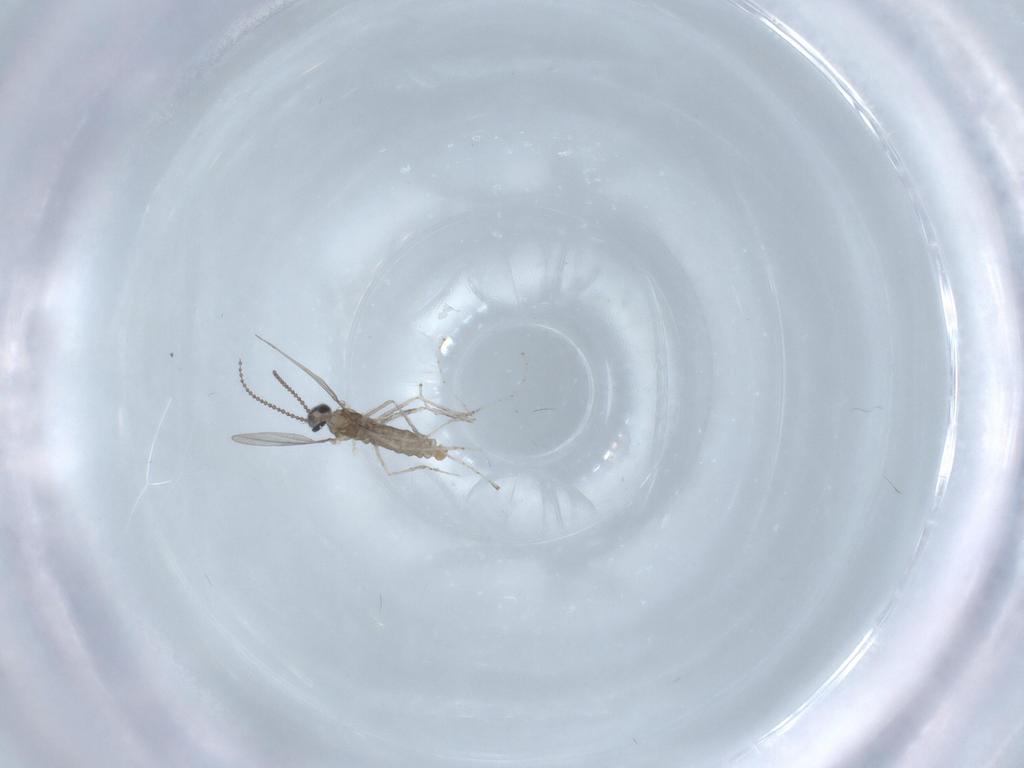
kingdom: Animalia
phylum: Arthropoda
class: Insecta
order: Diptera
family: Cecidomyiidae
